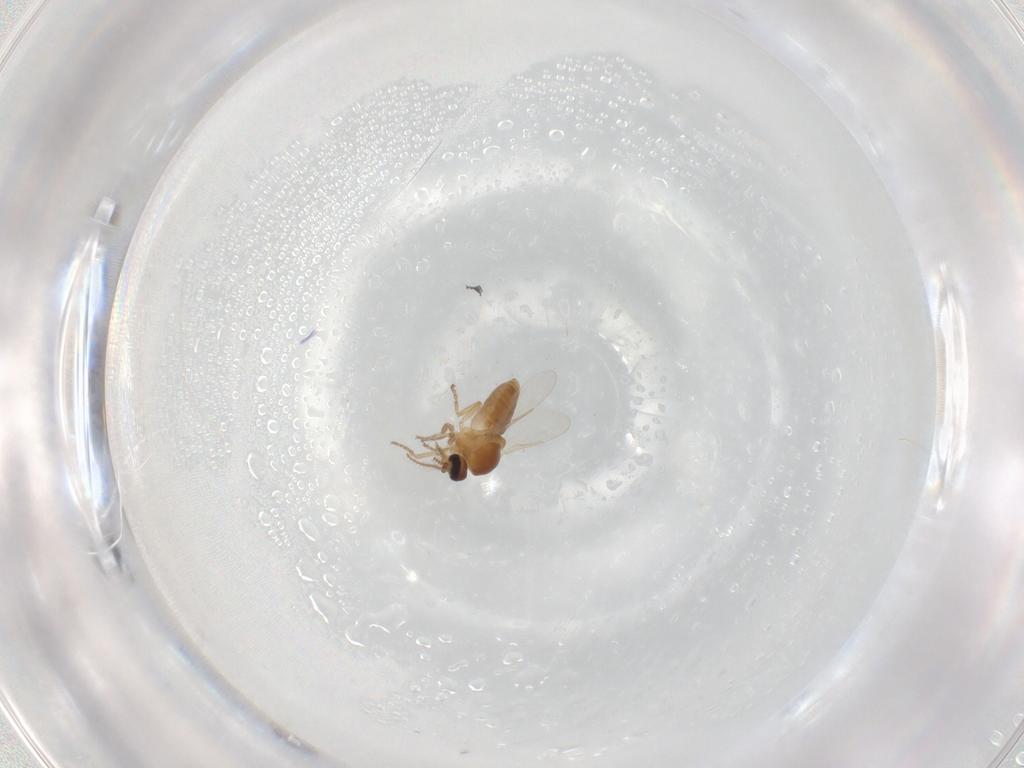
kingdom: Animalia
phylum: Arthropoda
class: Insecta
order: Diptera
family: Ceratopogonidae
